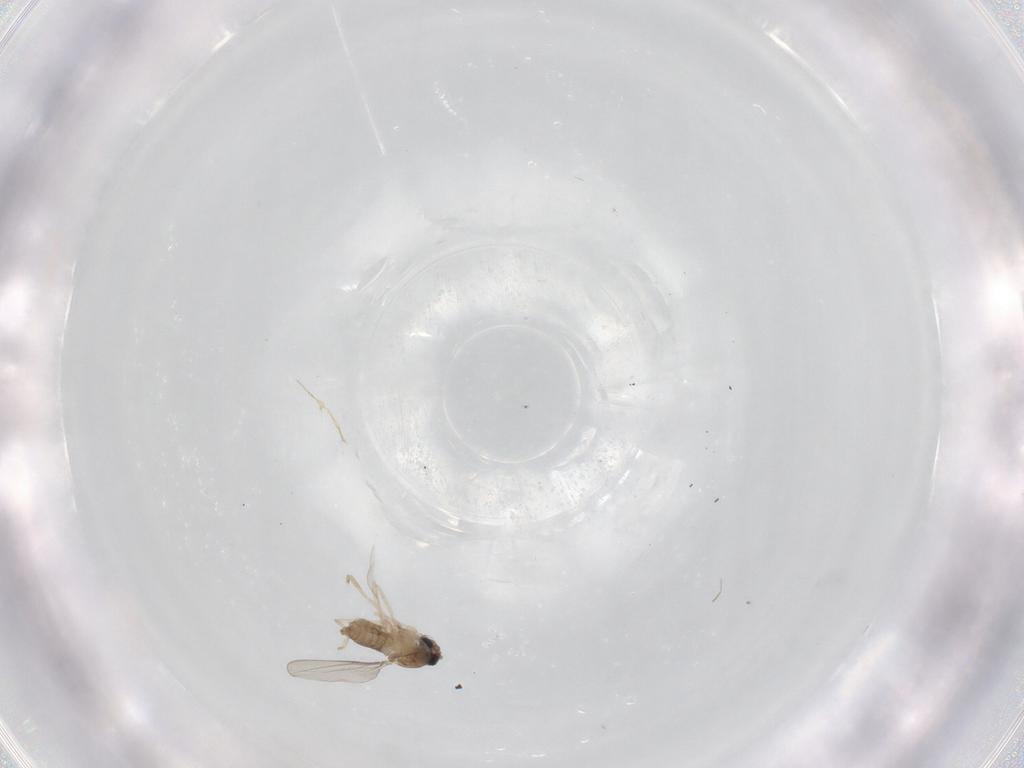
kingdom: Animalia
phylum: Arthropoda
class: Insecta
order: Diptera
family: Cecidomyiidae
